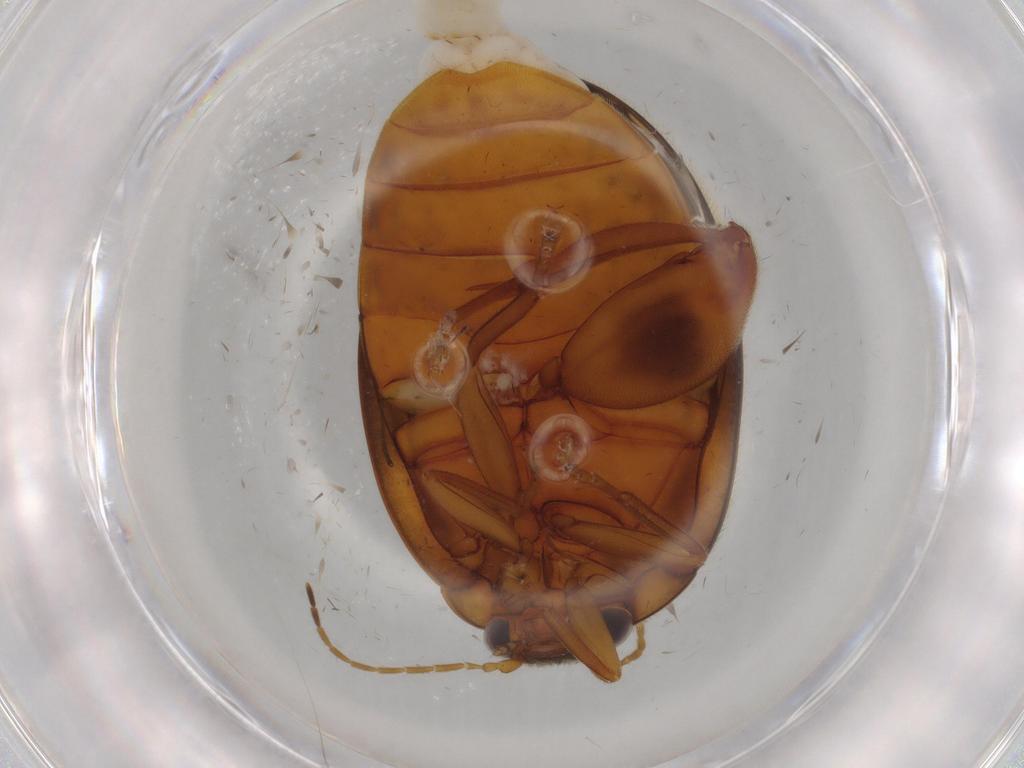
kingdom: Animalia
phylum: Arthropoda
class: Insecta
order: Coleoptera
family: Scirtidae
